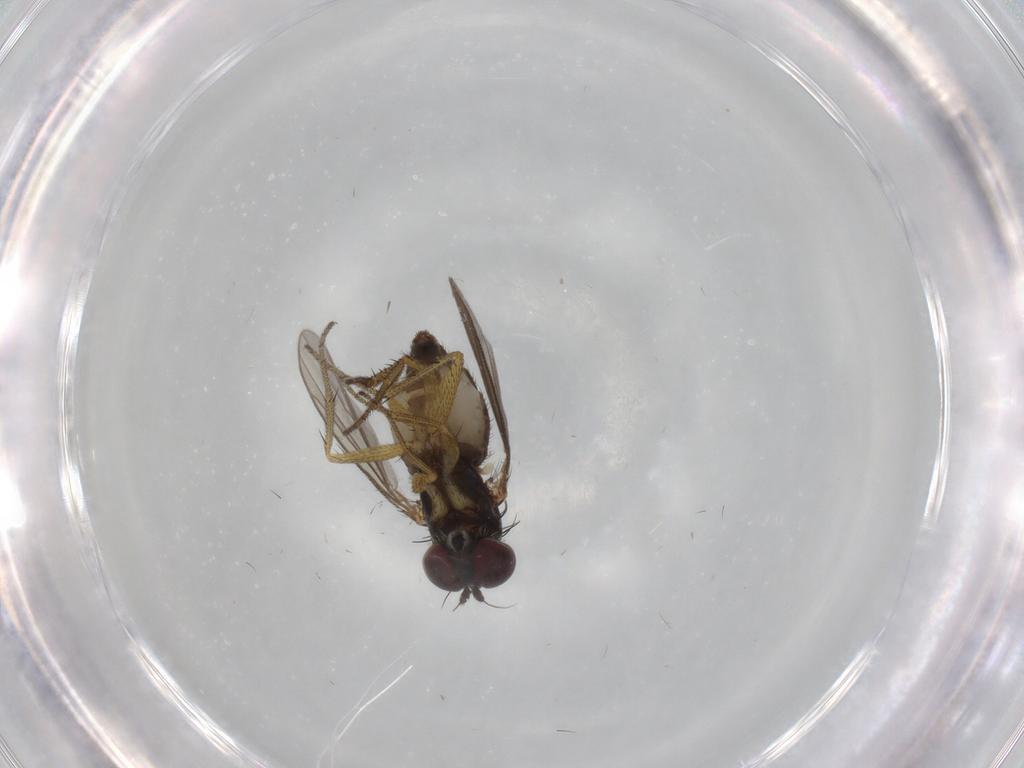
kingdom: Animalia
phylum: Arthropoda
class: Insecta
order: Diptera
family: Dolichopodidae
